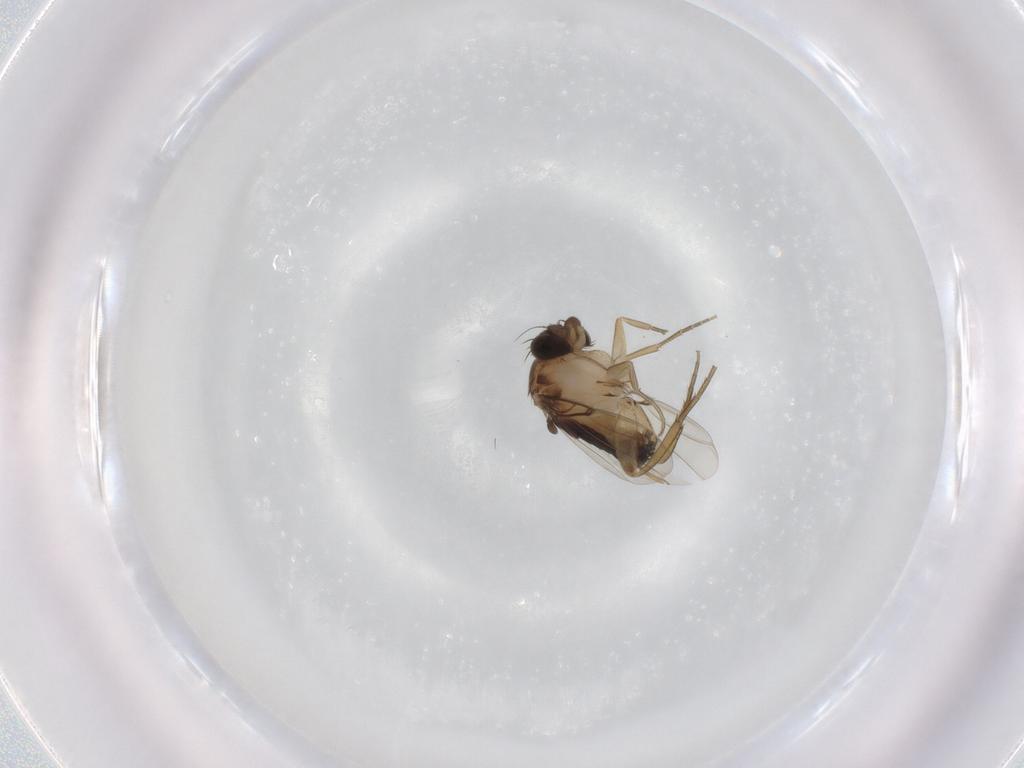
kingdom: Animalia
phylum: Arthropoda
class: Insecta
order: Diptera
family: Phoridae
